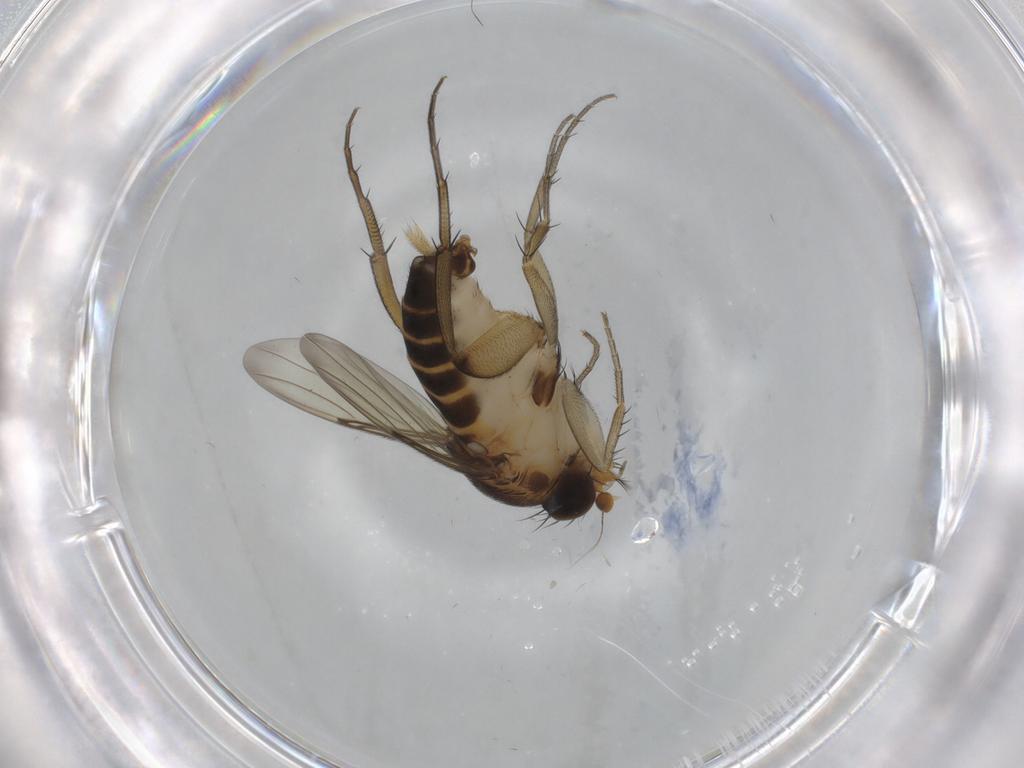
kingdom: Animalia
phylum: Arthropoda
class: Insecta
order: Diptera
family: Phoridae
